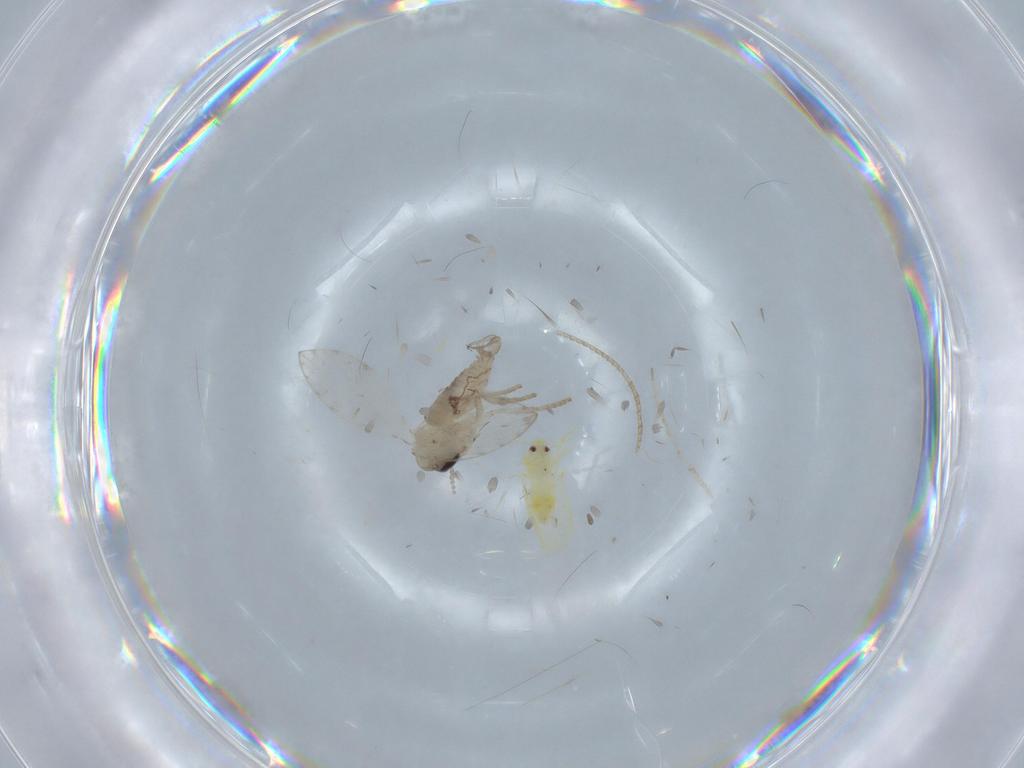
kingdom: Animalia
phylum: Arthropoda
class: Insecta
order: Diptera
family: Psychodidae
